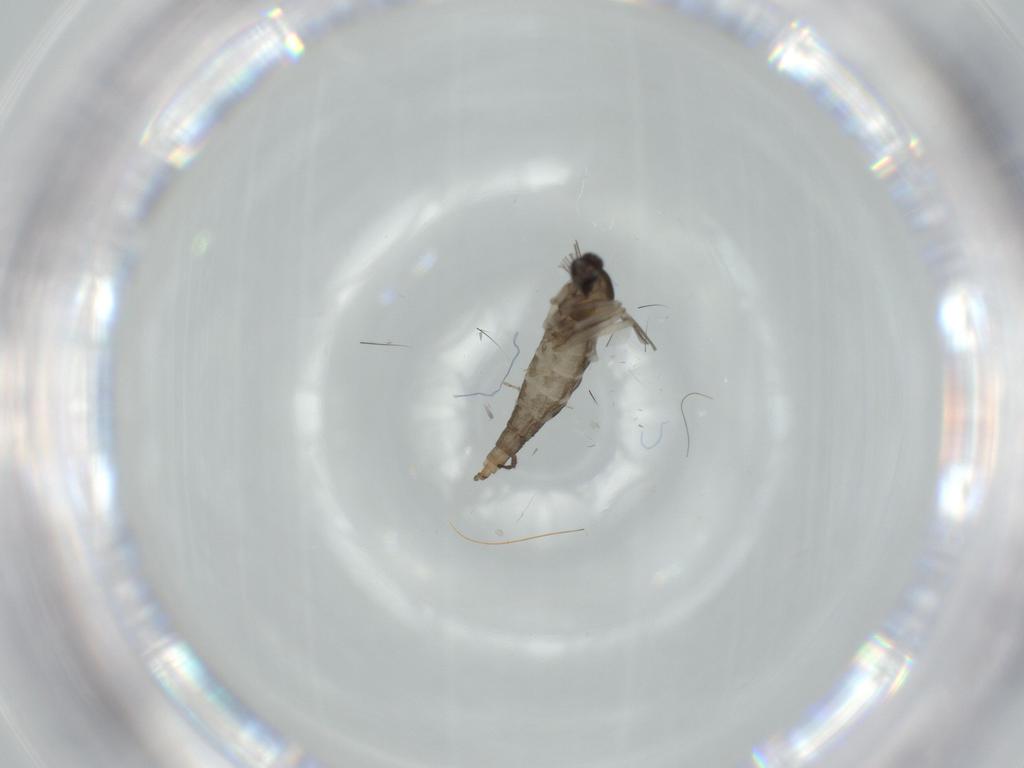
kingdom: Animalia
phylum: Arthropoda
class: Insecta
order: Diptera
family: Cecidomyiidae
